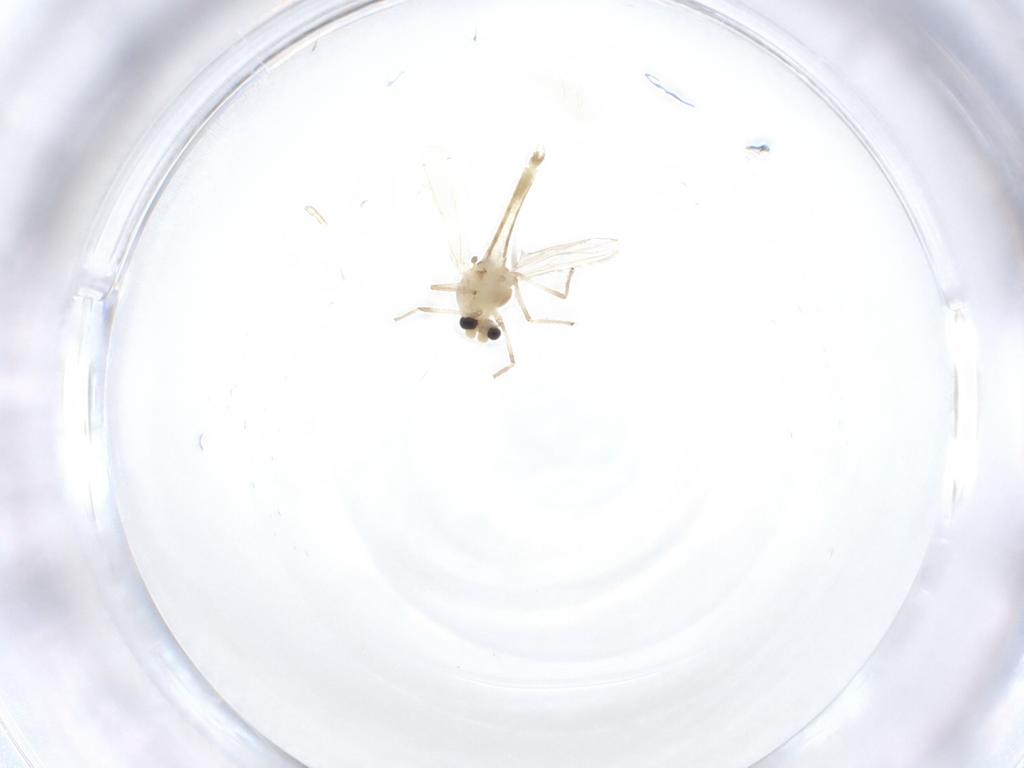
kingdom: Animalia
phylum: Arthropoda
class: Insecta
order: Diptera
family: Chironomidae
